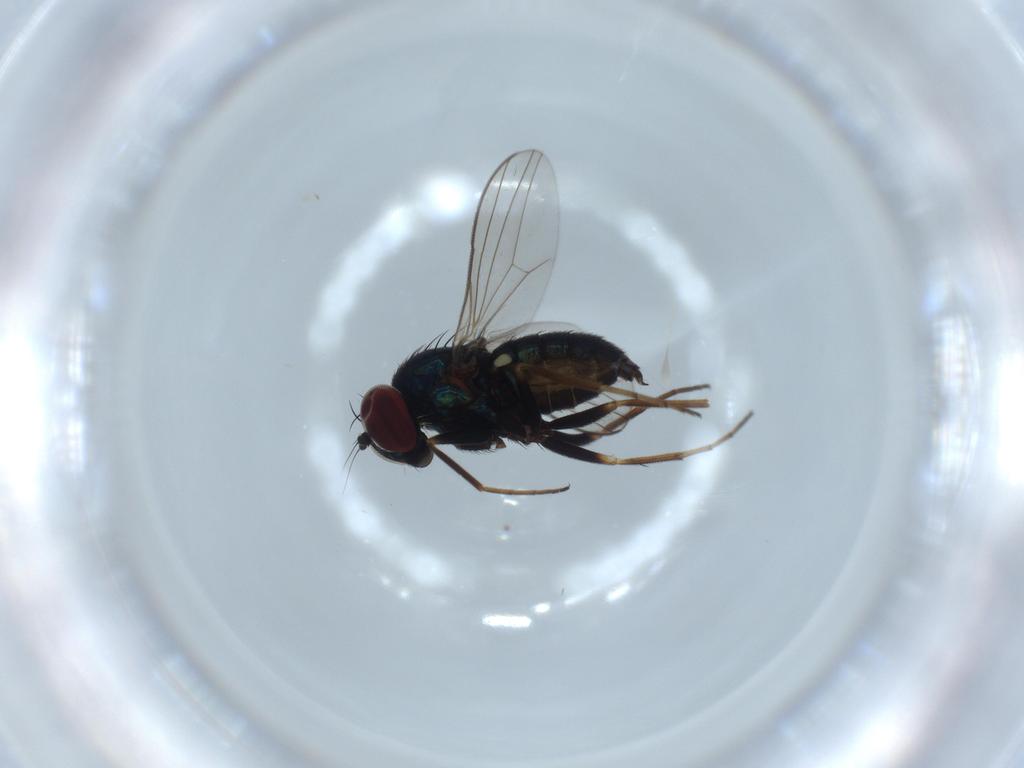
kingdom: Animalia
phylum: Arthropoda
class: Insecta
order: Diptera
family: Dolichopodidae
